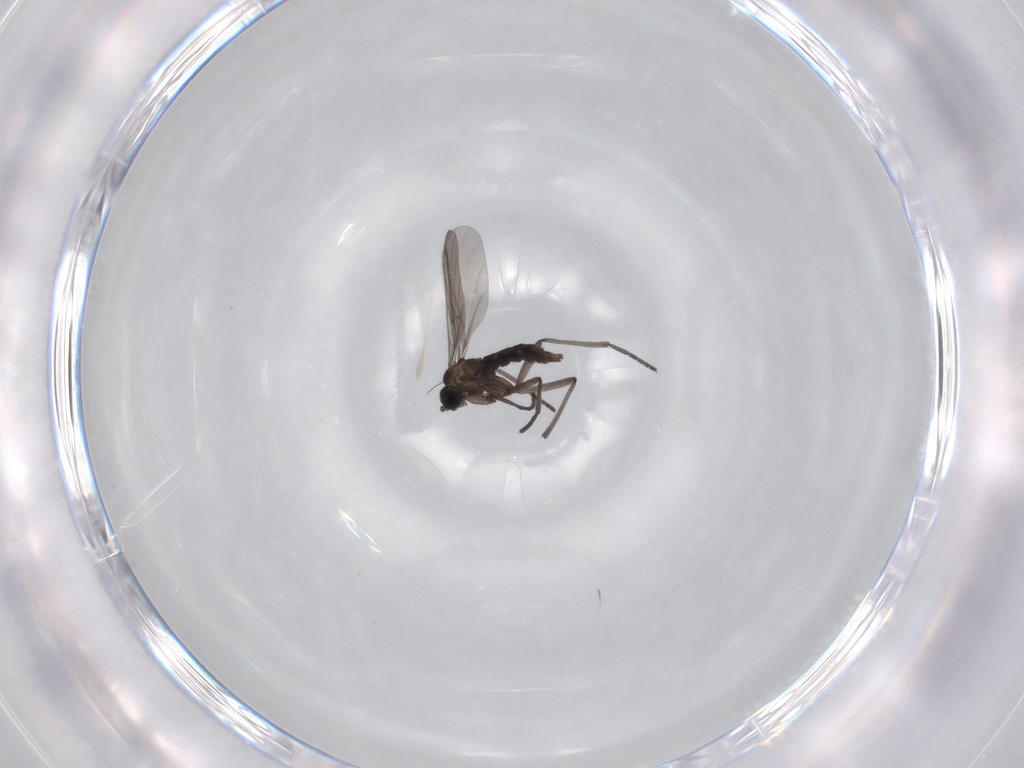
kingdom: Animalia
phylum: Arthropoda
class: Insecta
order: Diptera
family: Sciaridae
